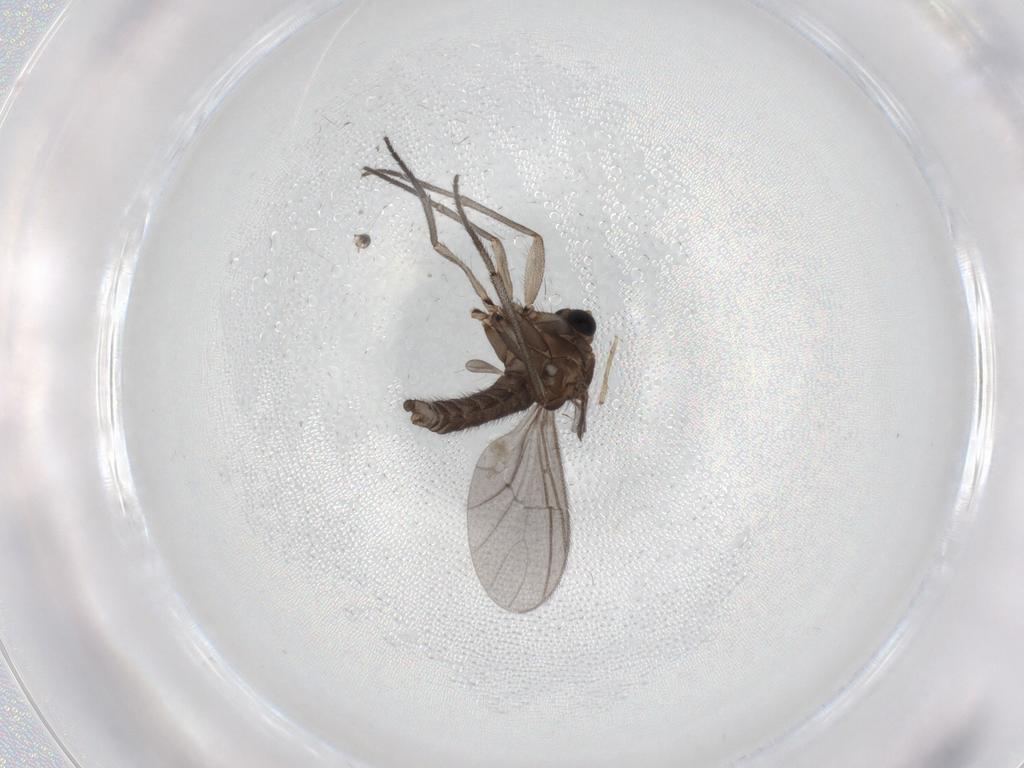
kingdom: Animalia
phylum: Arthropoda
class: Insecta
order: Diptera
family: Sciaridae
